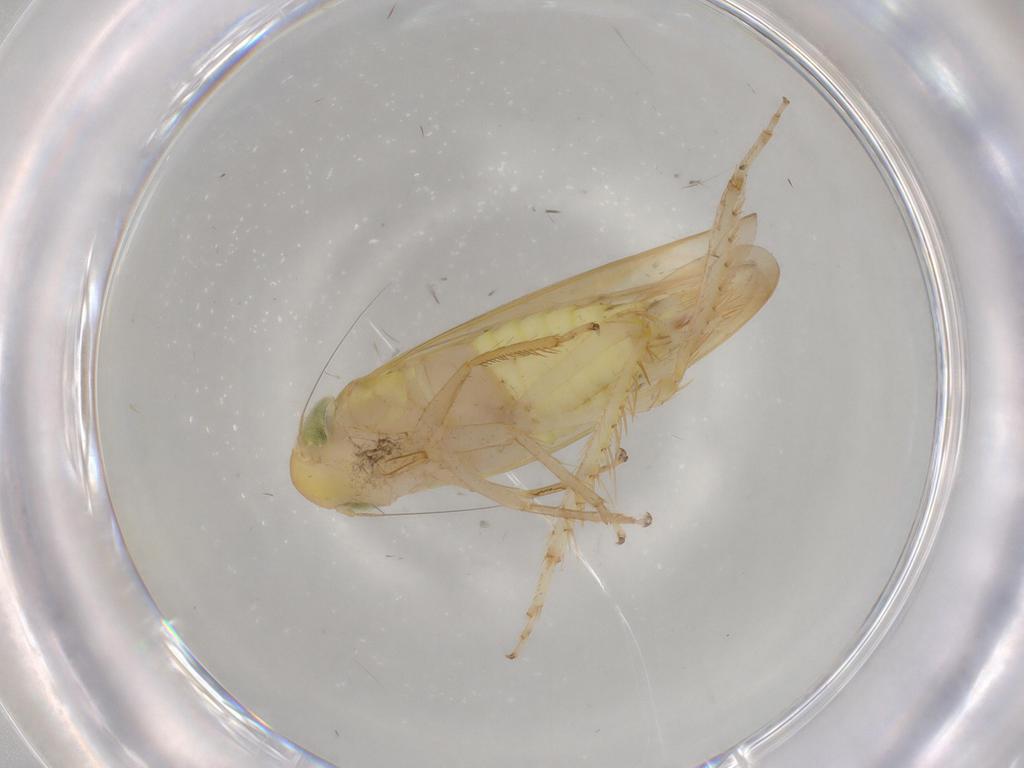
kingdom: Animalia
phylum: Arthropoda
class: Insecta
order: Hemiptera
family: Cicadellidae
